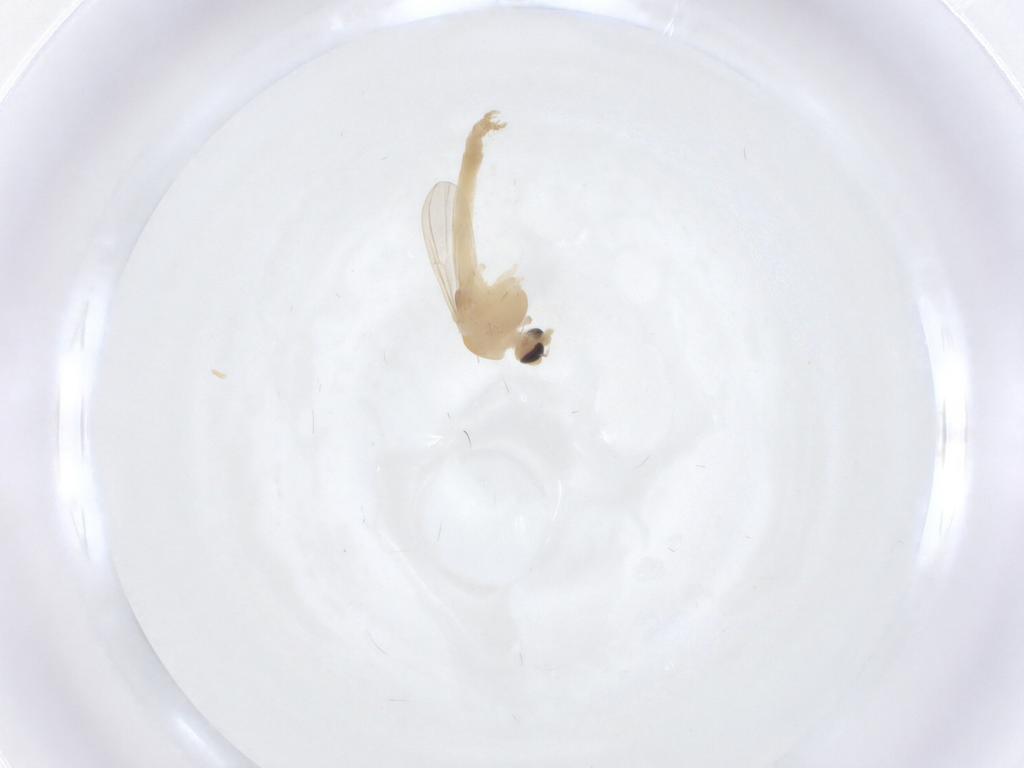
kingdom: Animalia
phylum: Arthropoda
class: Insecta
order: Diptera
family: Chironomidae
